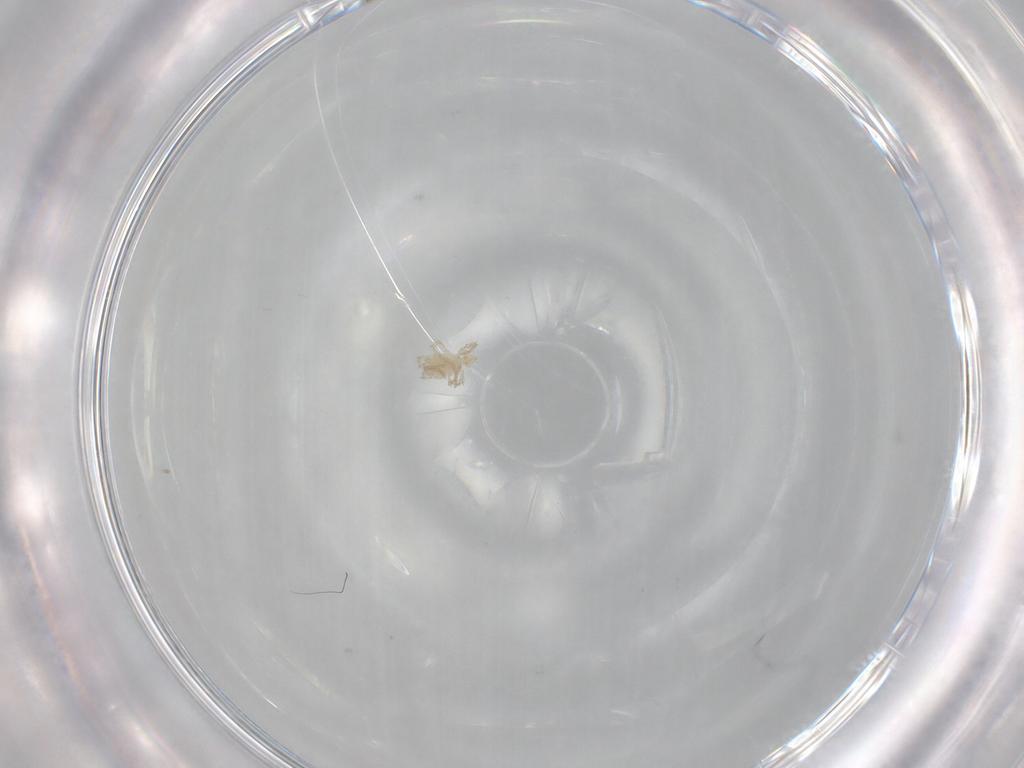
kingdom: Animalia
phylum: Arthropoda
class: Arachnida
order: Trombidiformes
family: Erythraeidae
